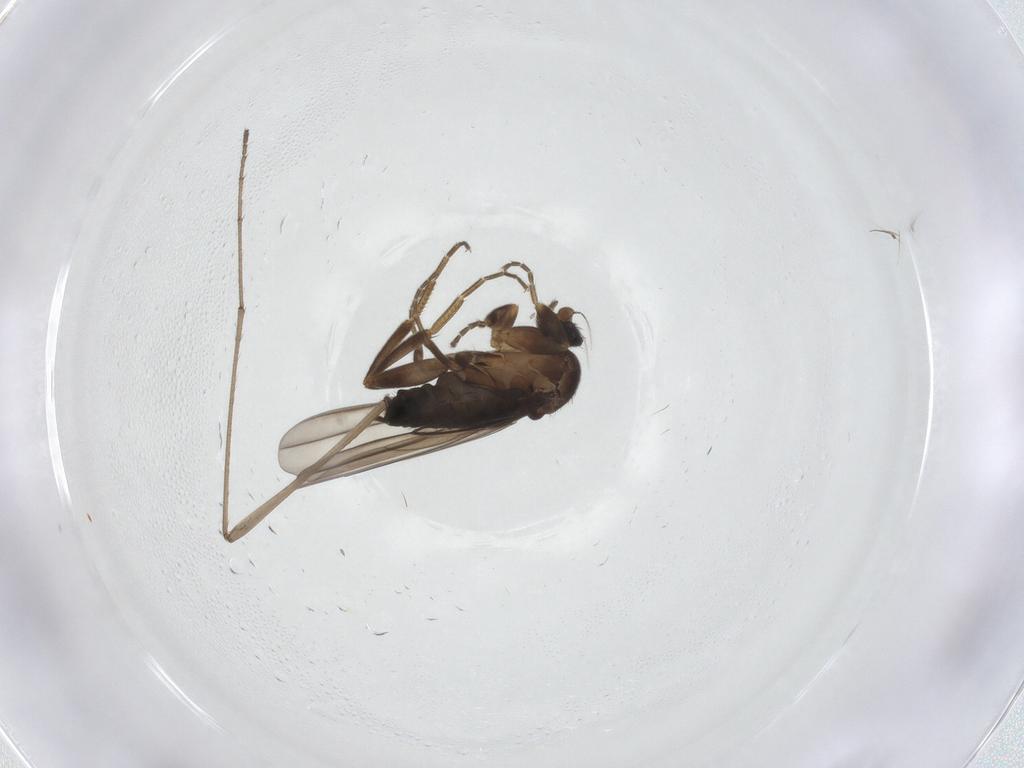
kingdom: Animalia
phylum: Arthropoda
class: Insecta
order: Diptera
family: Limoniidae
